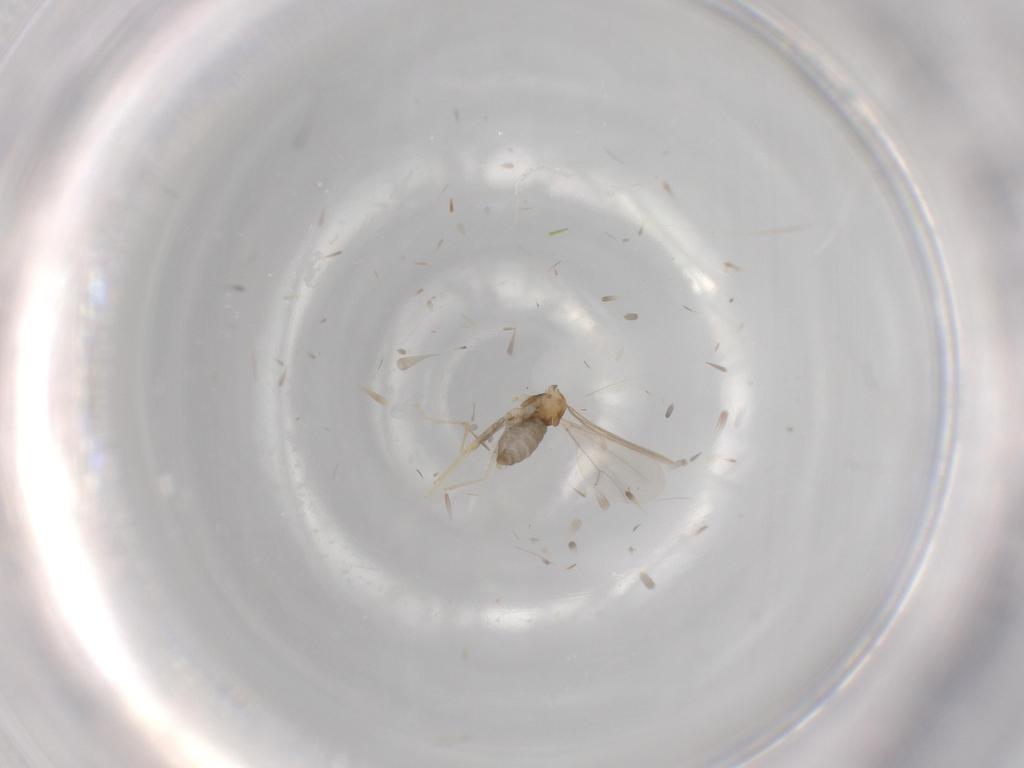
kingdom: Animalia
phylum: Arthropoda
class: Insecta
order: Diptera
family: Cecidomyiidae
